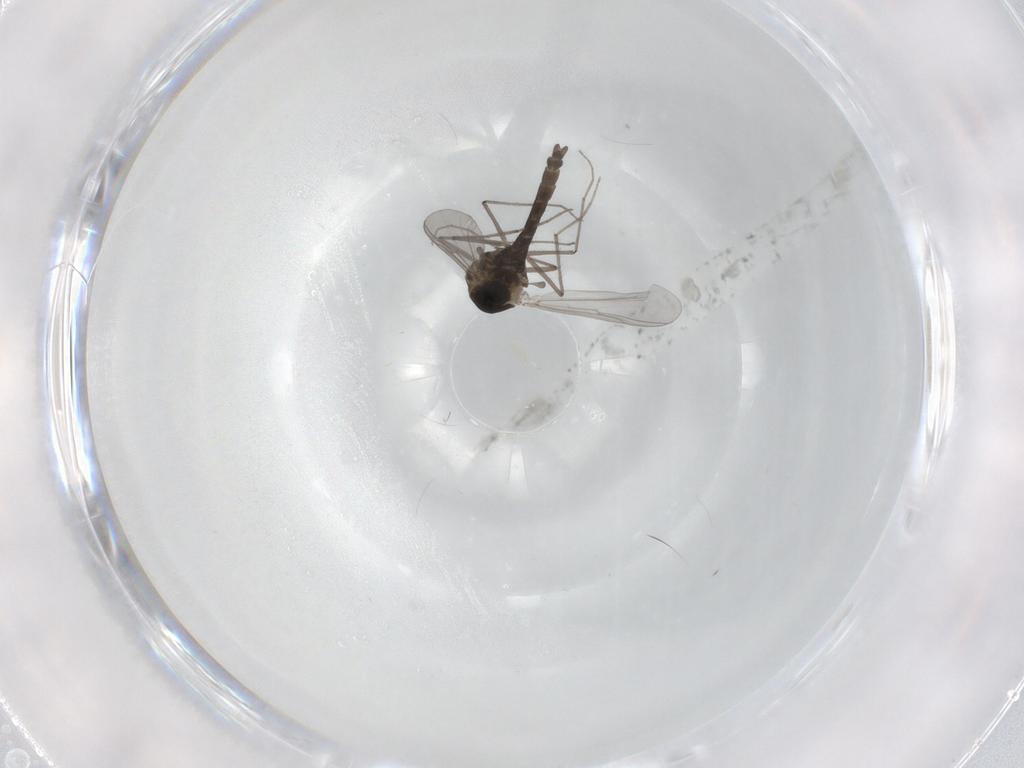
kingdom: Animalia
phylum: Arthropoda
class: Insecta
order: Diptera
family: Chironomidae
